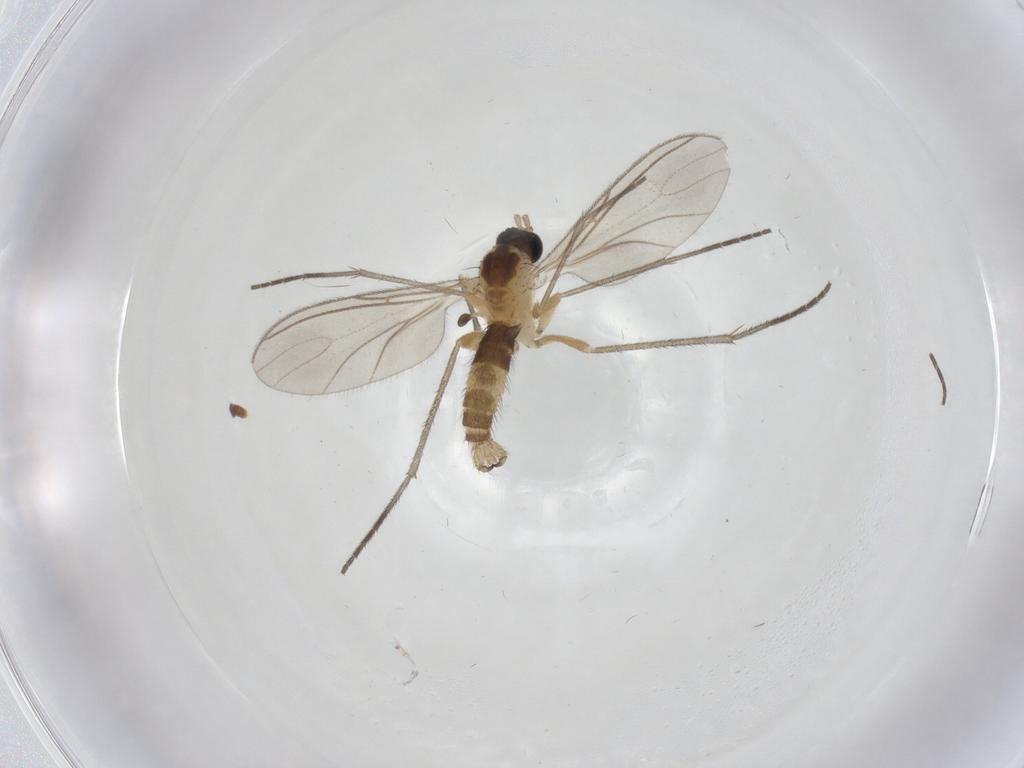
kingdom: Animalia
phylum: Arthropoda
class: Insecta
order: Diptera
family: Sciaridae
